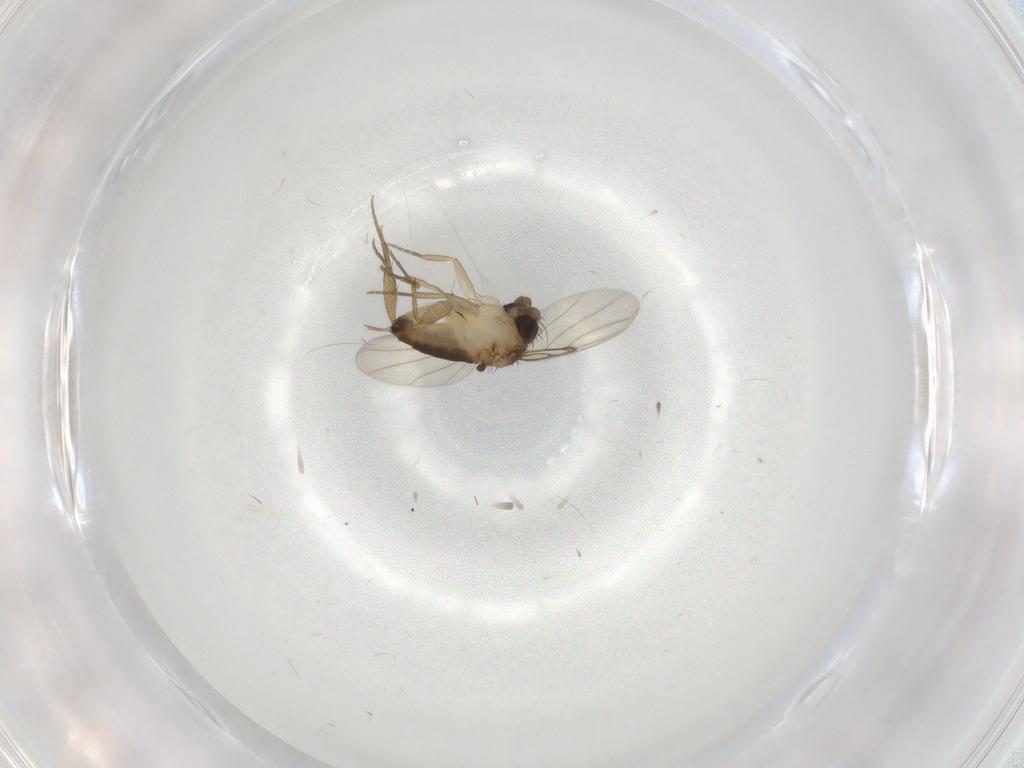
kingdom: Animalia
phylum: Arthropoda
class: Insecta
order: Diptera
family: Phoridae
